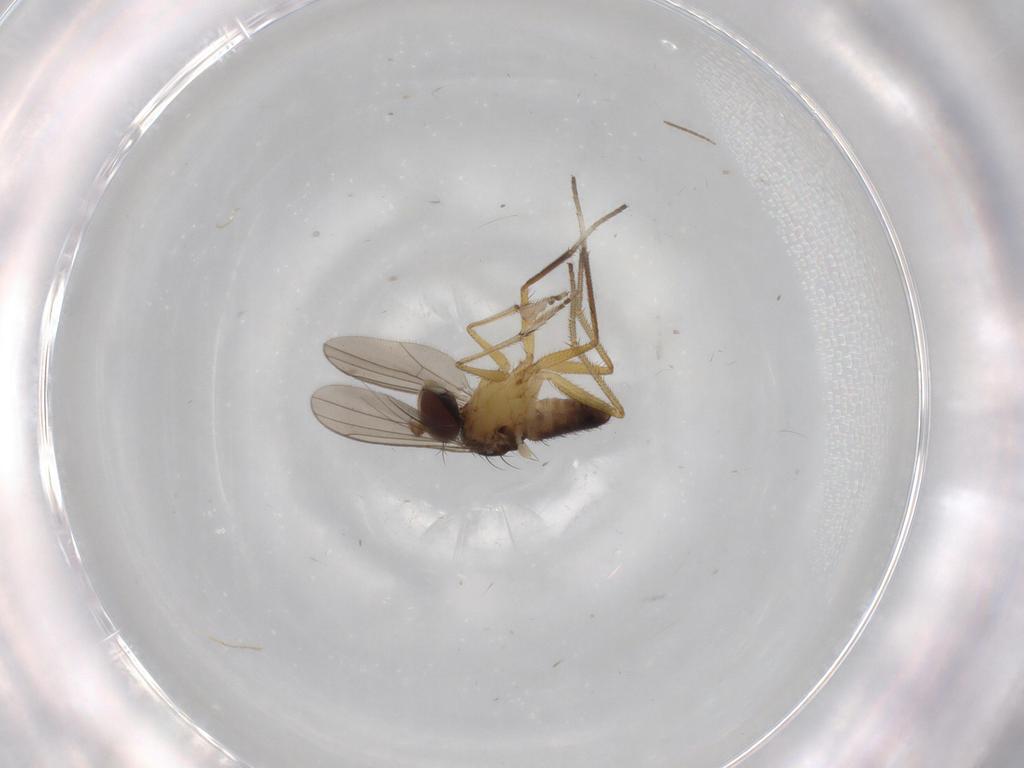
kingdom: Animalia
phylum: Arthropoda
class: Insecta
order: Diptera
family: Dolichopodidae
